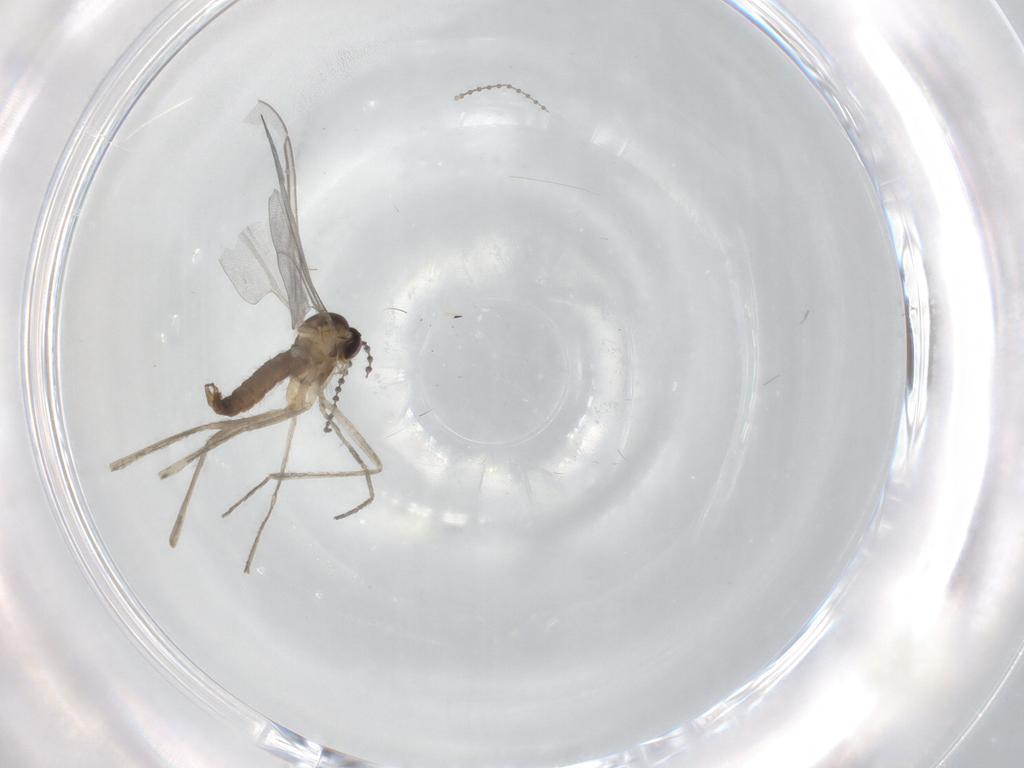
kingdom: Animalia
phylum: Arthropoda
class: Insecta
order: Diptera
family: Cecidomyiidae
